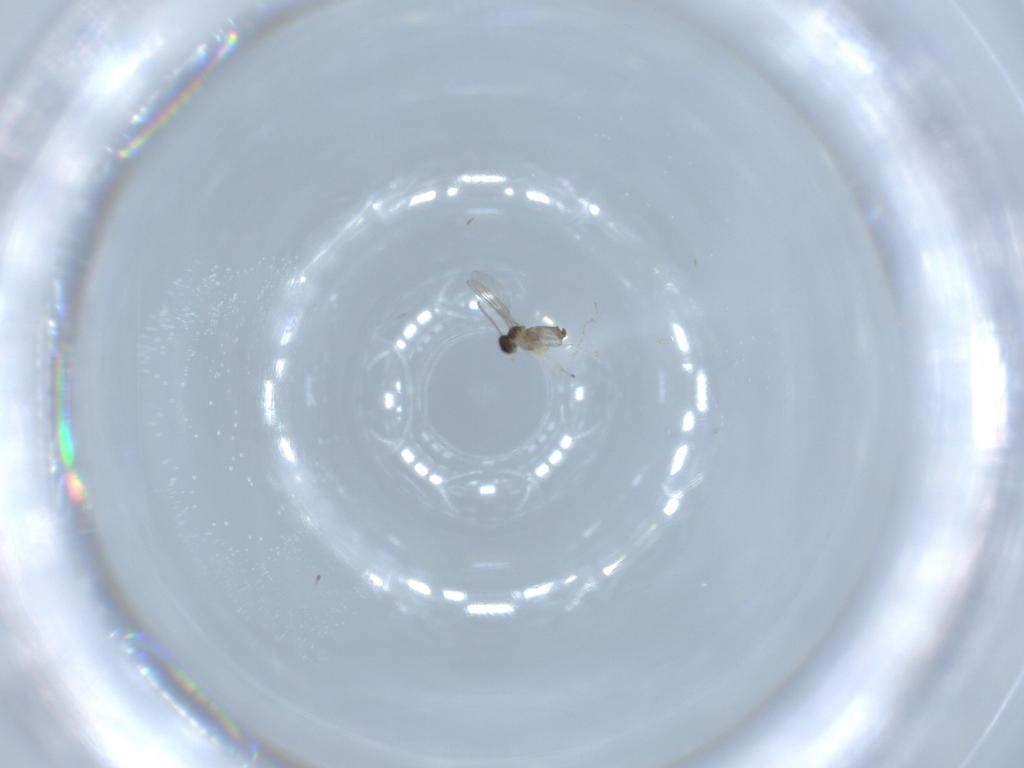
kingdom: Animalia
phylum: Arthropoda
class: Insecta
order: Diptera
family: Cecidomyiidae
